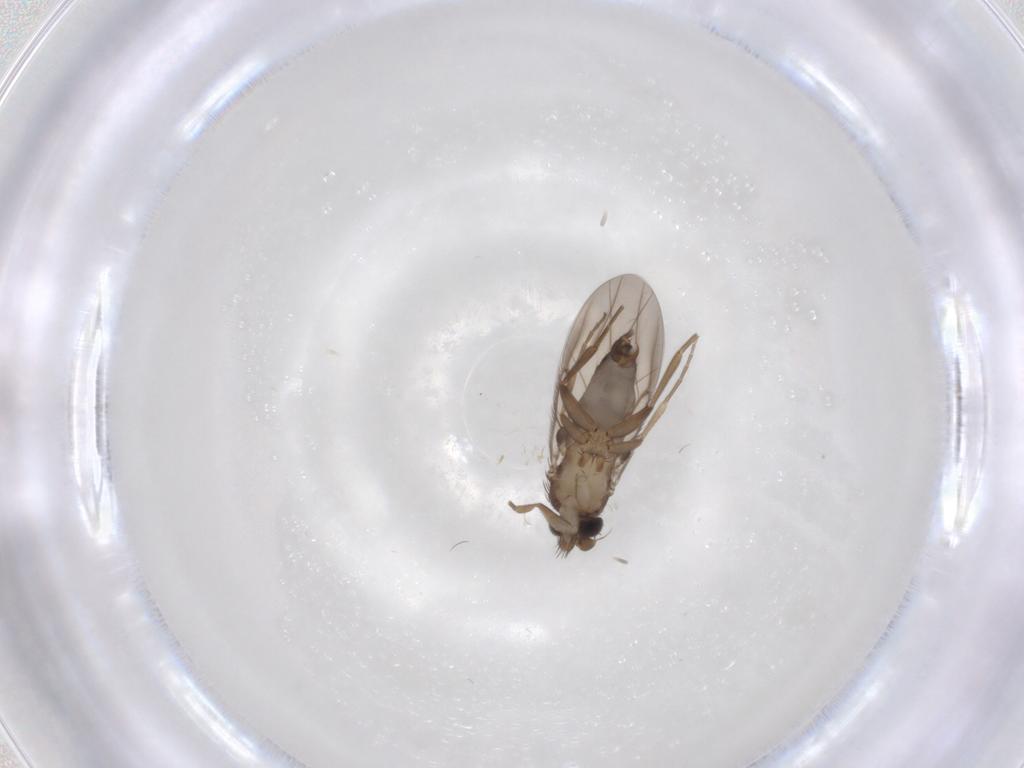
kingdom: Animalia
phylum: Arthropoda
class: Insecta
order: Diptera
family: Phoridae
